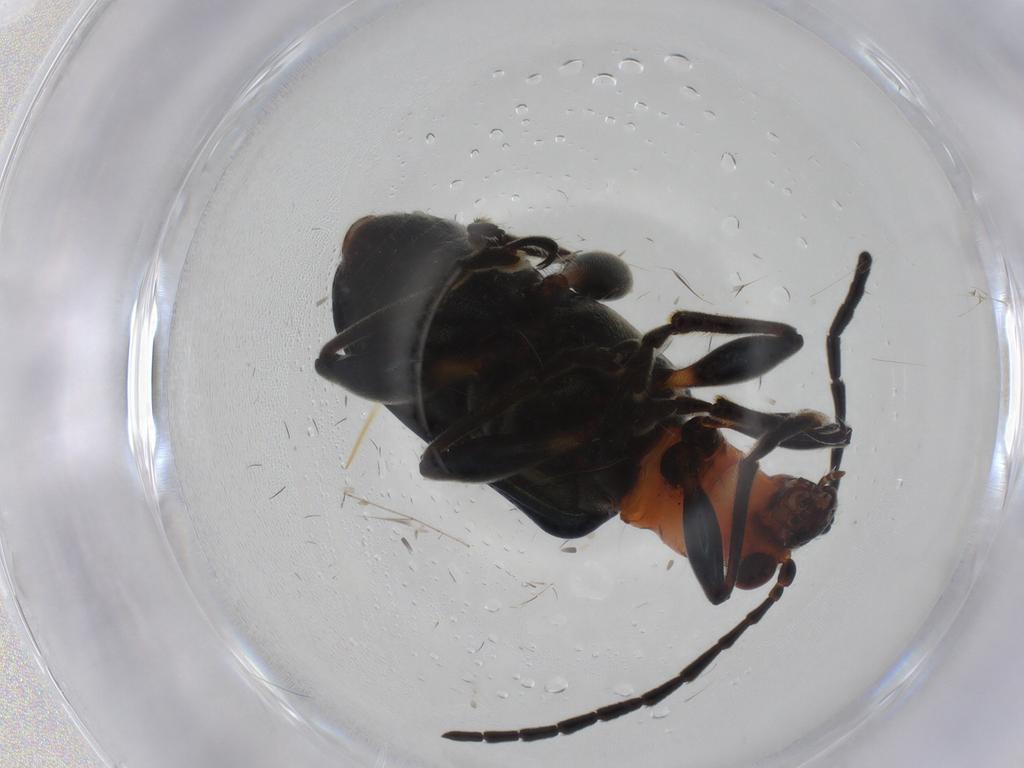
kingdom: Animalia
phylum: Arthropoda
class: Insecta
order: Coleoptera
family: Chrysomelidae
